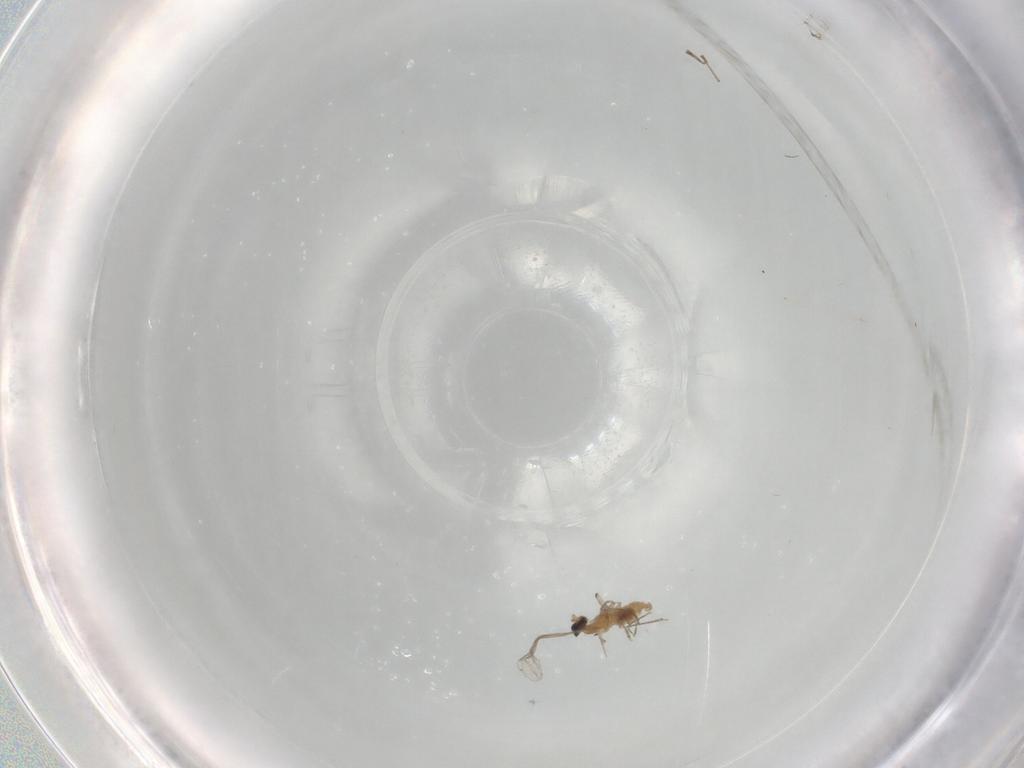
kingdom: Animalia
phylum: Arthropoda
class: Insecta
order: Diptera
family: Cecidomyiidae
